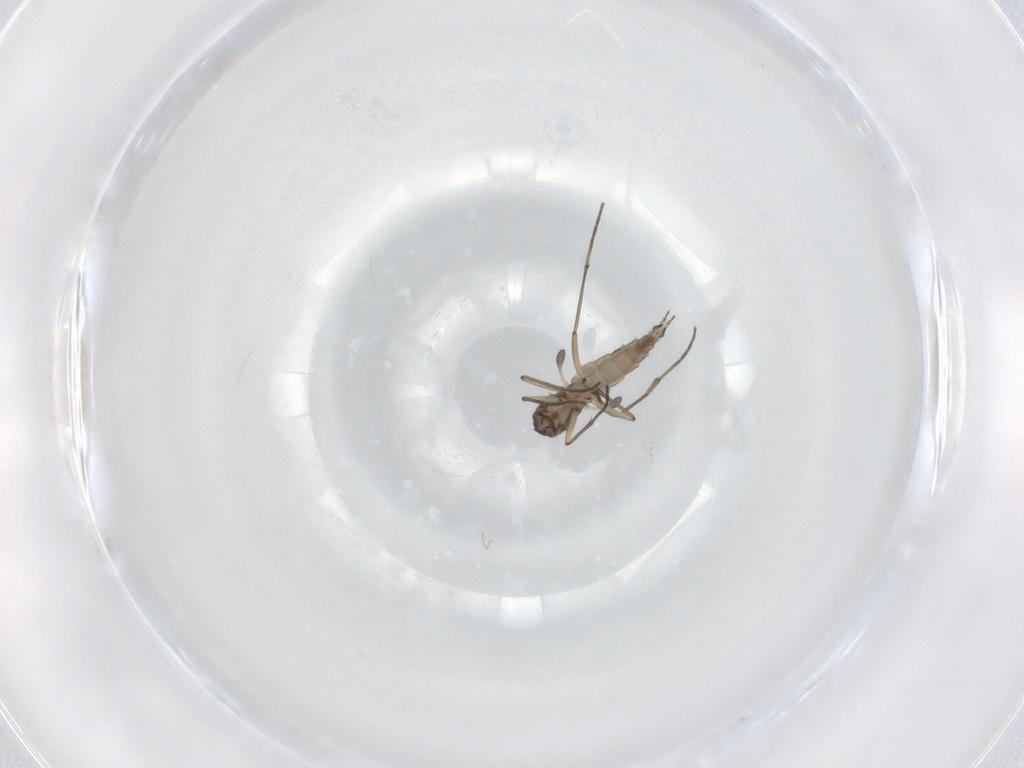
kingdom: Animalia
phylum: Arthropoda
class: Insecta
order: Diptera
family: Sciaridae
